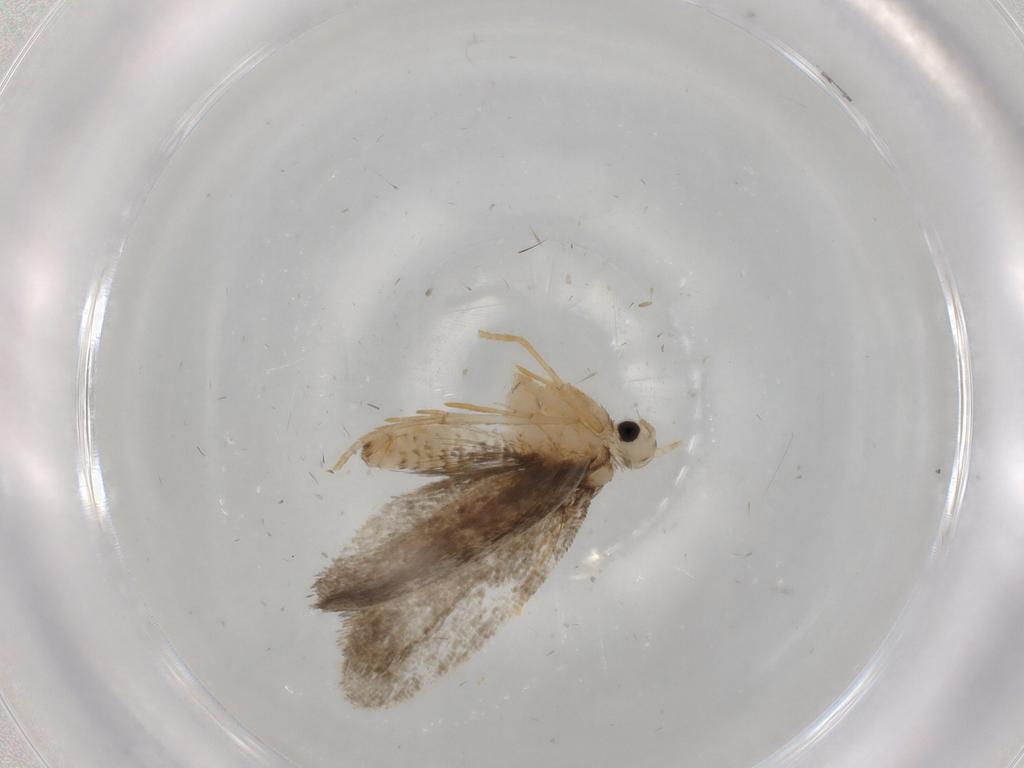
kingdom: Animalia
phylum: Arthropoda
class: Insecta
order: Lepidoptera
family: Psychidae
